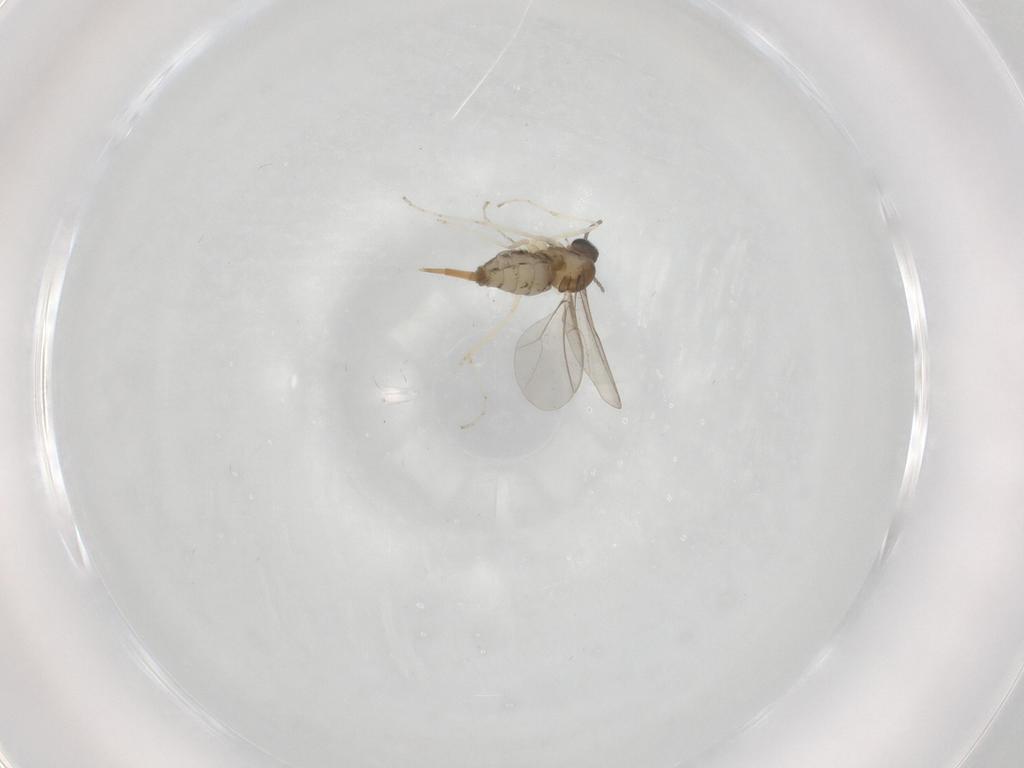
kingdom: Animalia
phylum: Arthropoda
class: Insecta
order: Diptera
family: Cecidomyiidae
